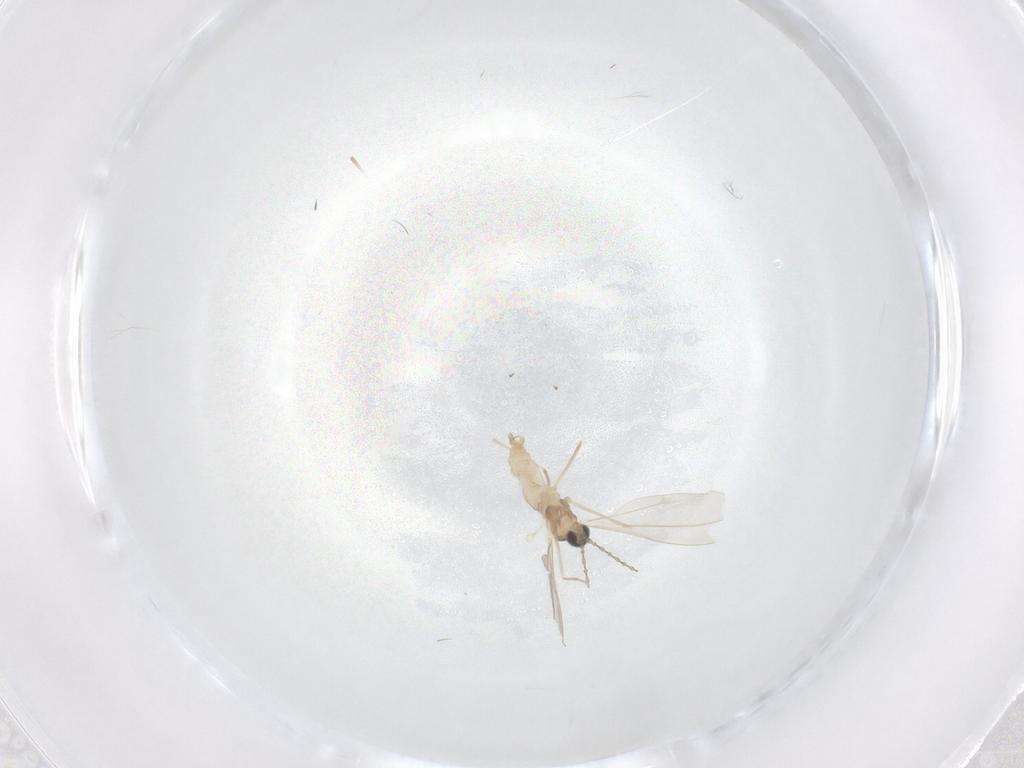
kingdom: Animalia
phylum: Arthropoda
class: Insecta
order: Diptera
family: Cecidomyiidae
